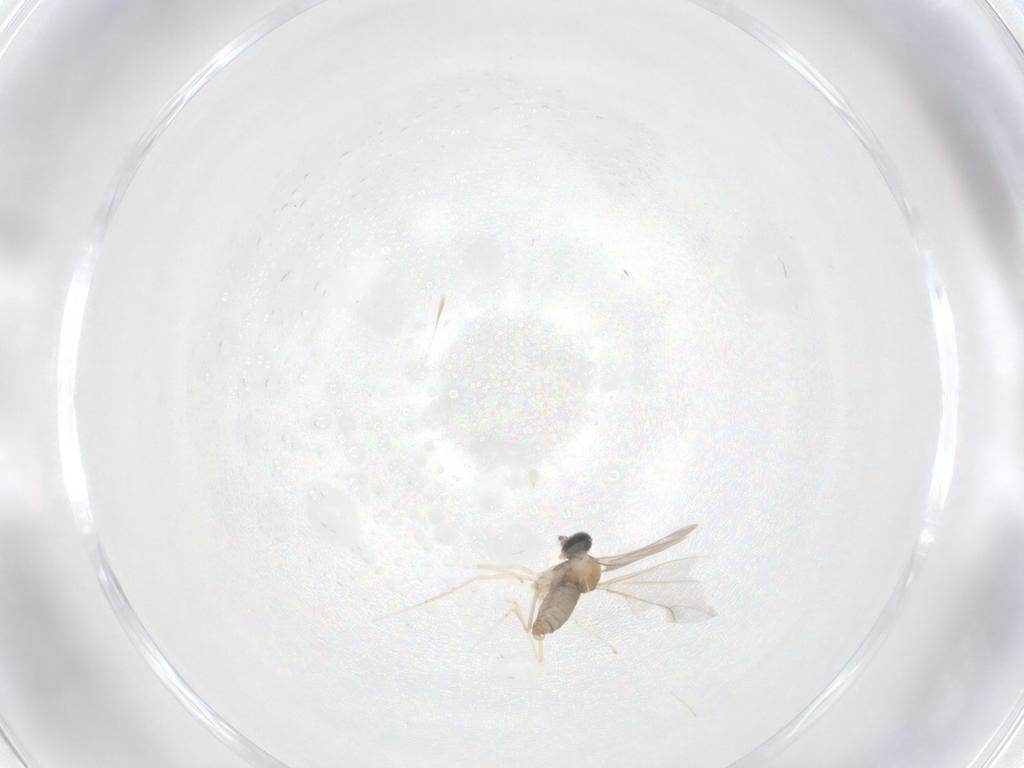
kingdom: Animalia
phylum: Arthropoda
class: Insecta
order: Diptera
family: Cecidomyiidae
